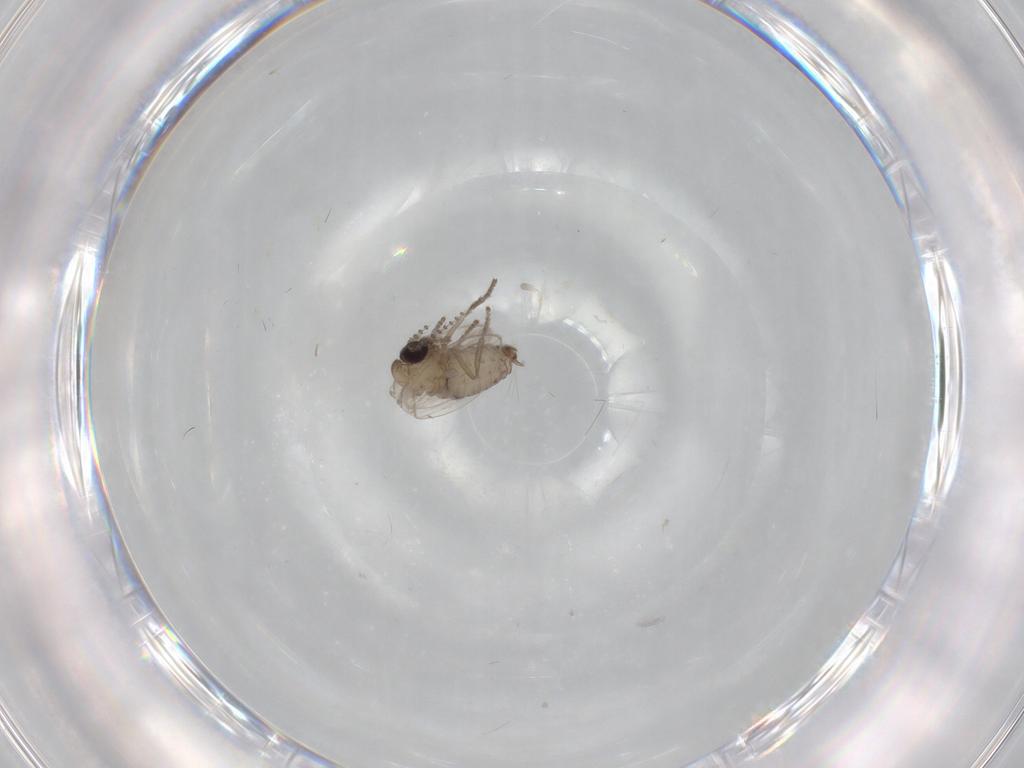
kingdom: Animalia
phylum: Arthropoda
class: Insecta
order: Diptera
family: Psychodidae
